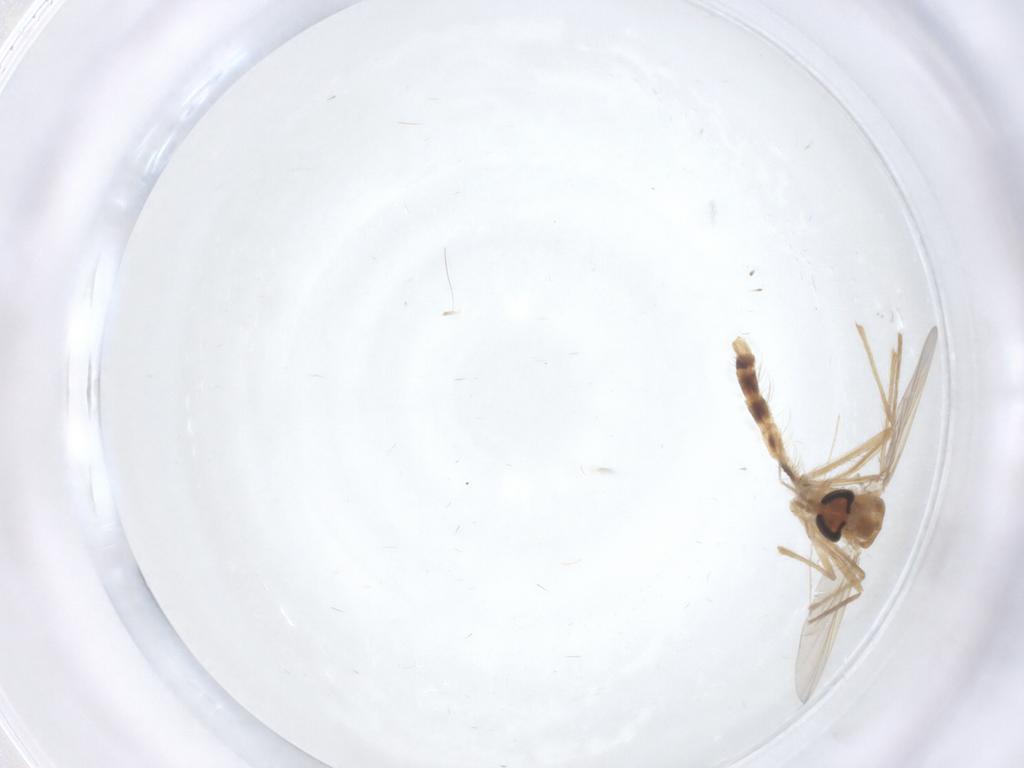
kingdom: Animalia
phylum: Arthropoda
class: Insecta
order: Diptera
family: Chironomidae
